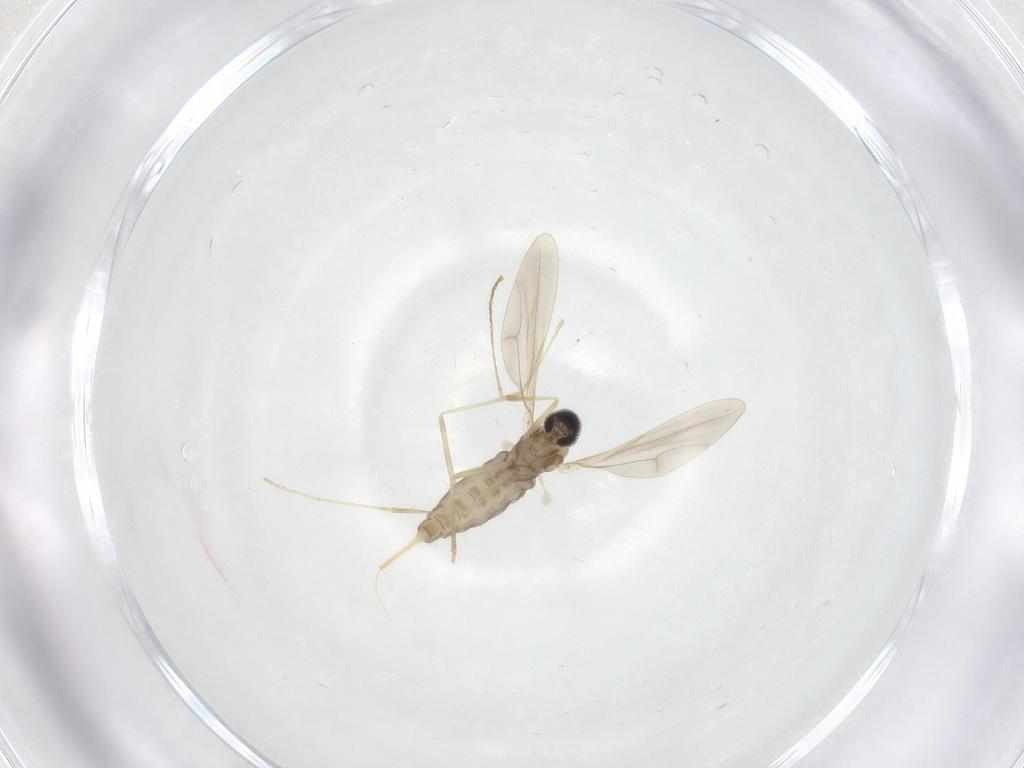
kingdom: Animalia
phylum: Arthropoda
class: Insecta
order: Diptera
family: Cecidomyiidae
